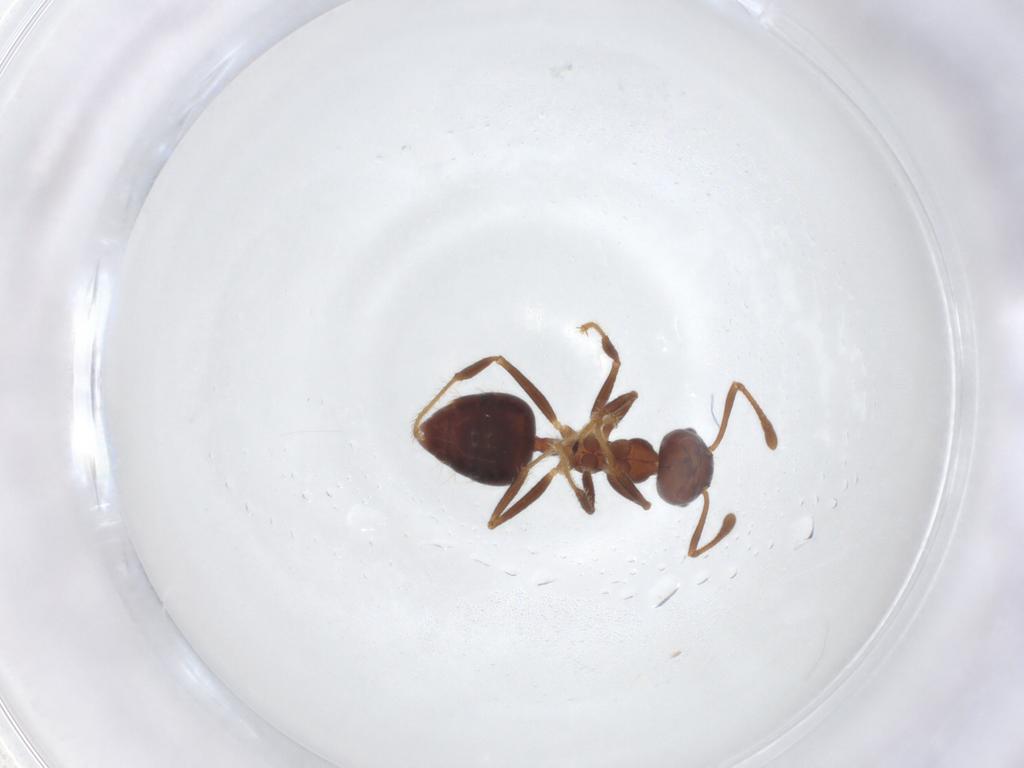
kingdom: Animalia
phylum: Arthropoda
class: Insecta
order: Hymenoptera
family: Formicidae
